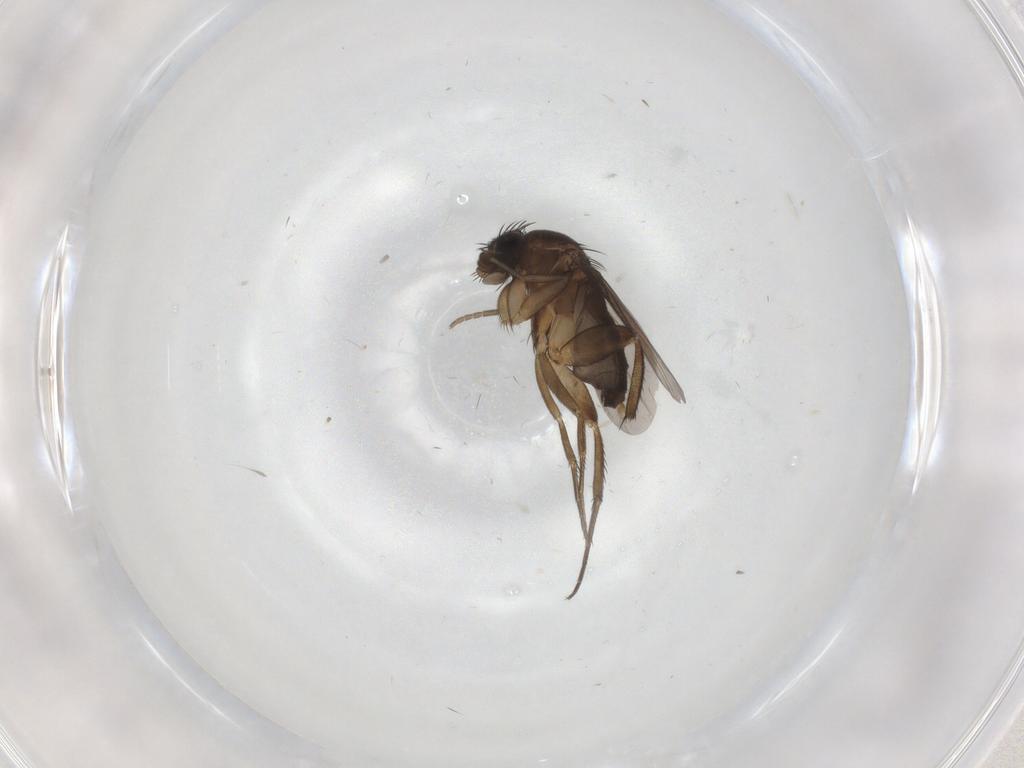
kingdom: Animalia
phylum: Arthropoda
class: Insecta
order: Diptera
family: Phoridae
